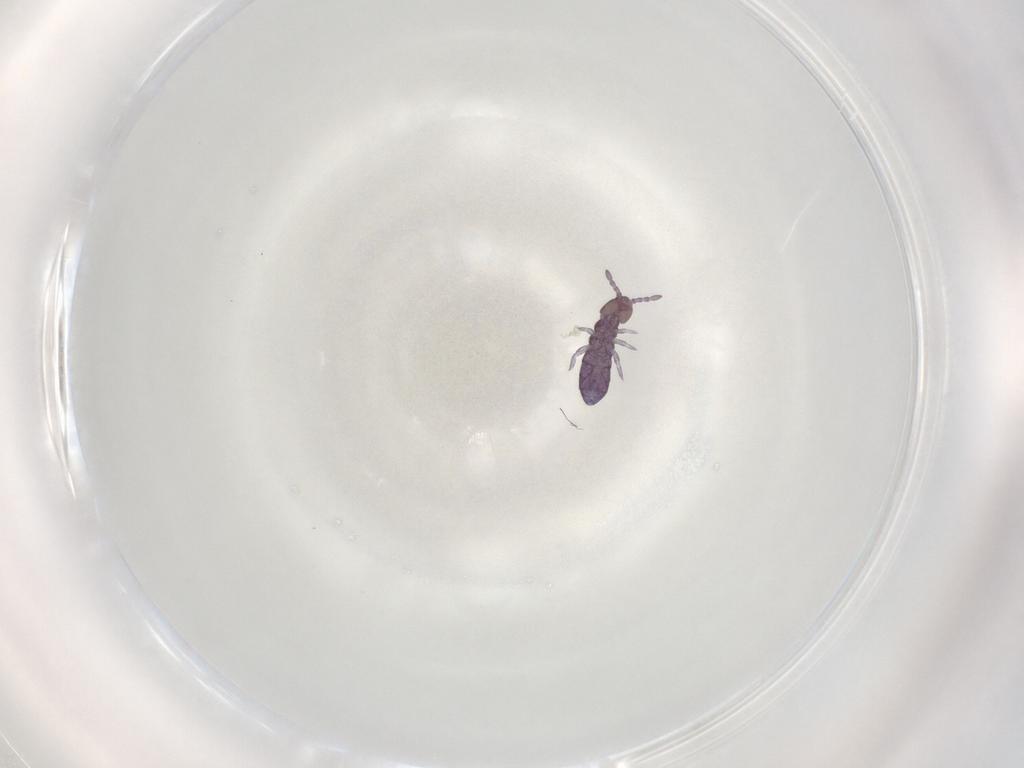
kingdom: Animalia
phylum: Arthropoda
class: Collembola
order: Entomobryomorpha
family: Isotomidae
